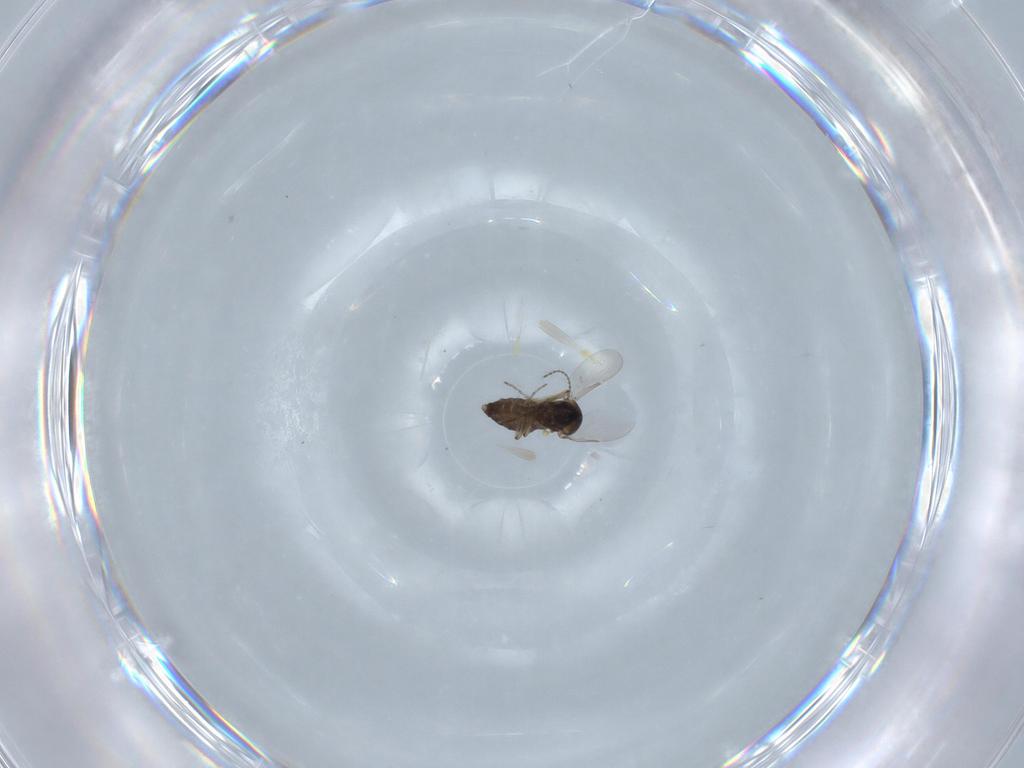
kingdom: Animalia
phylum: Arthropoda
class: Insecta
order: Diptera
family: Ceratopogonidae
